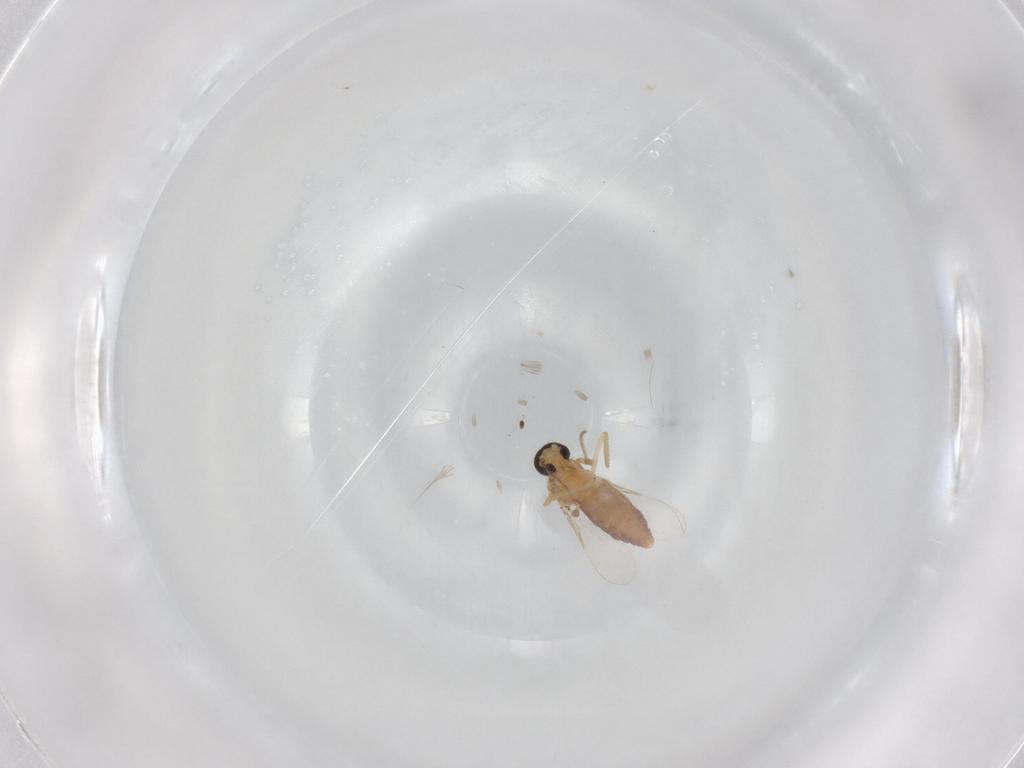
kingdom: Animalia
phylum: Arthropoda
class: Insecta
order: Diptera
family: Ceratopogonidae
